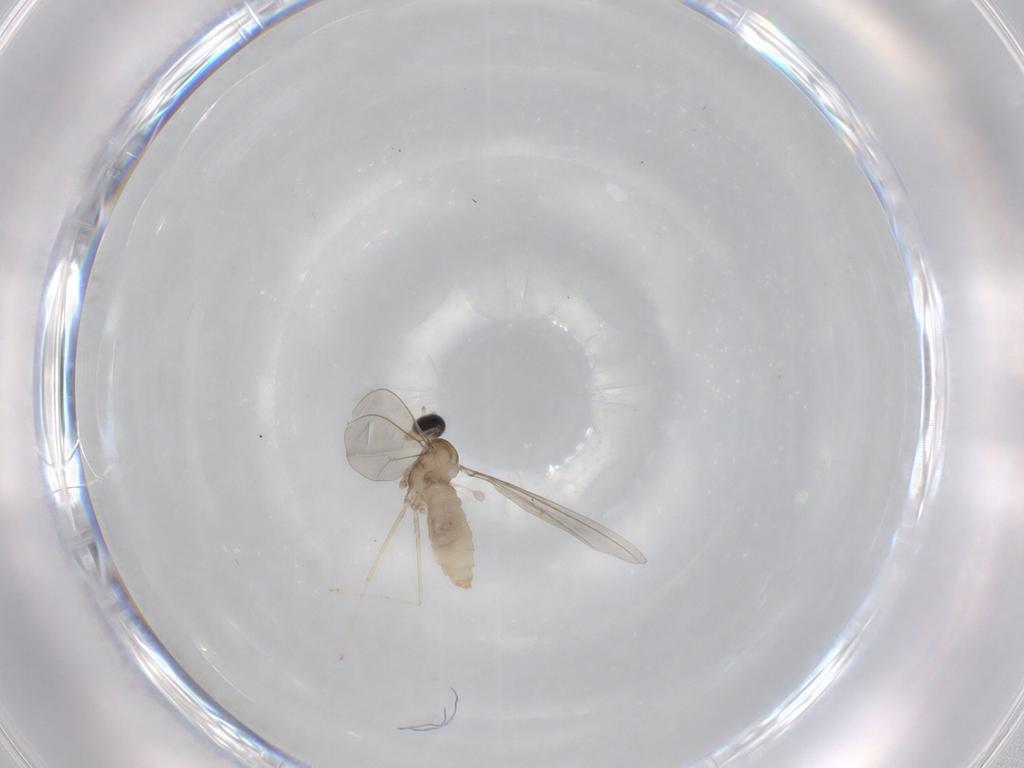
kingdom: Animalia
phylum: Arthropoda
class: Insecta
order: Diptera
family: Cecidomyiidae
